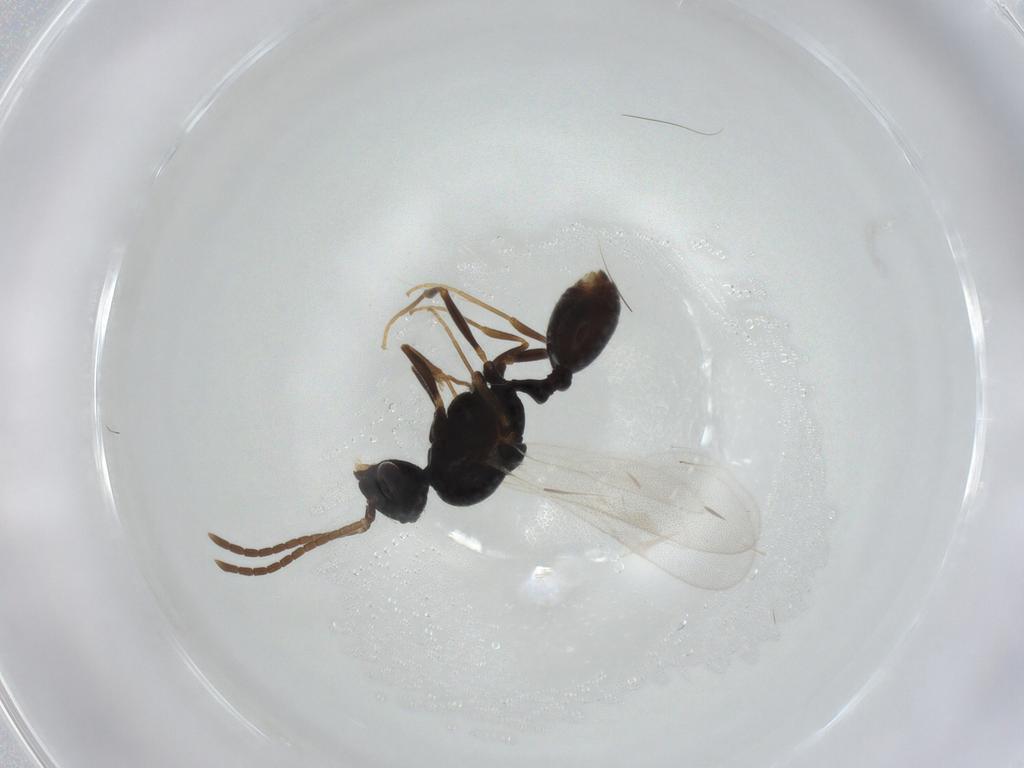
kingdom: Animalia
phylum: Arthropoda
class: Insecta
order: Hymenoptera
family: Formicidae
